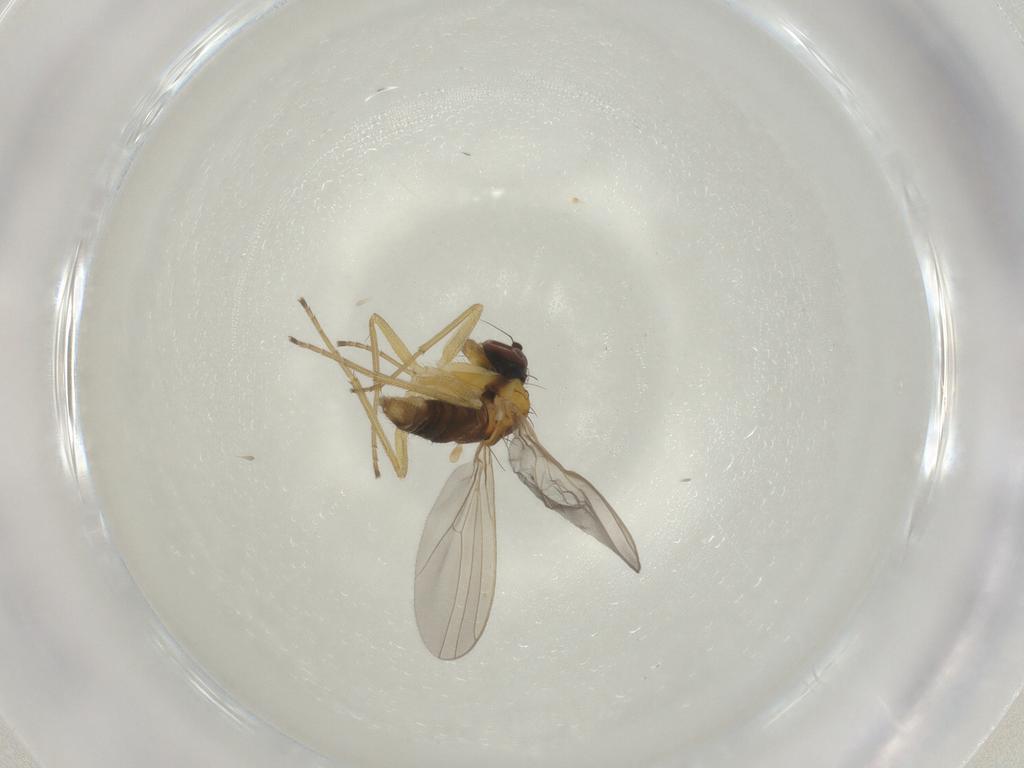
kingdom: Animalia
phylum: Arthropoda
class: Insecta
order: Diptera
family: Dolichopodidae
